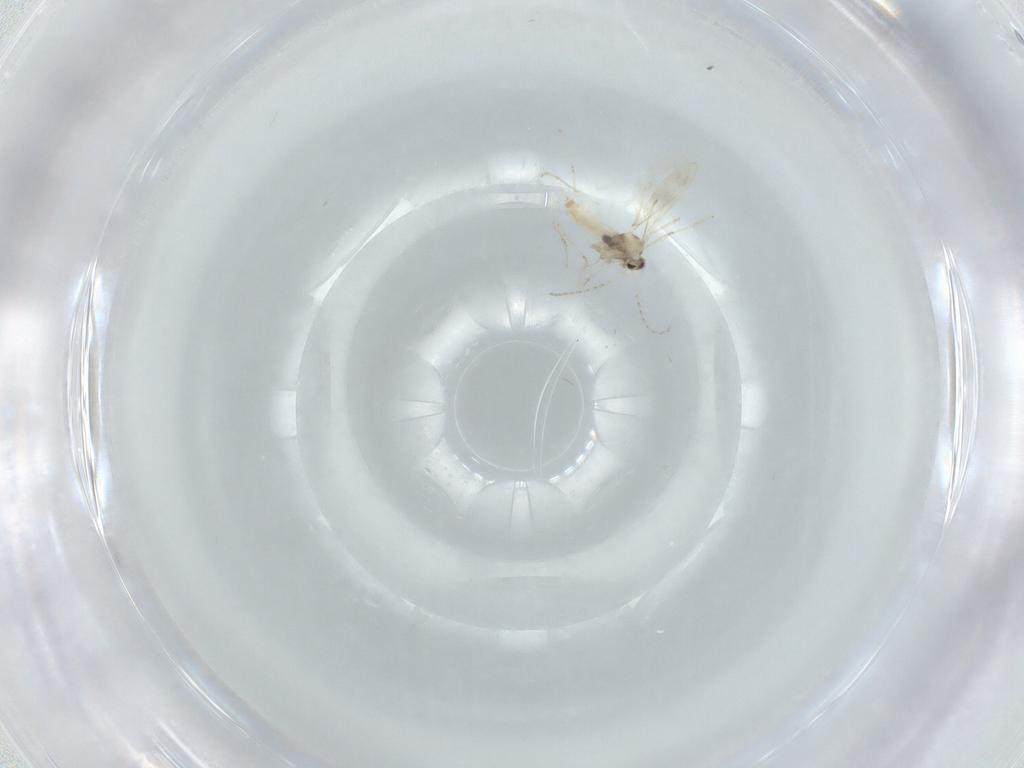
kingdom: Animalia
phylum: Arthropoda
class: Insecta
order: Diptera
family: Cecidomyiidae
